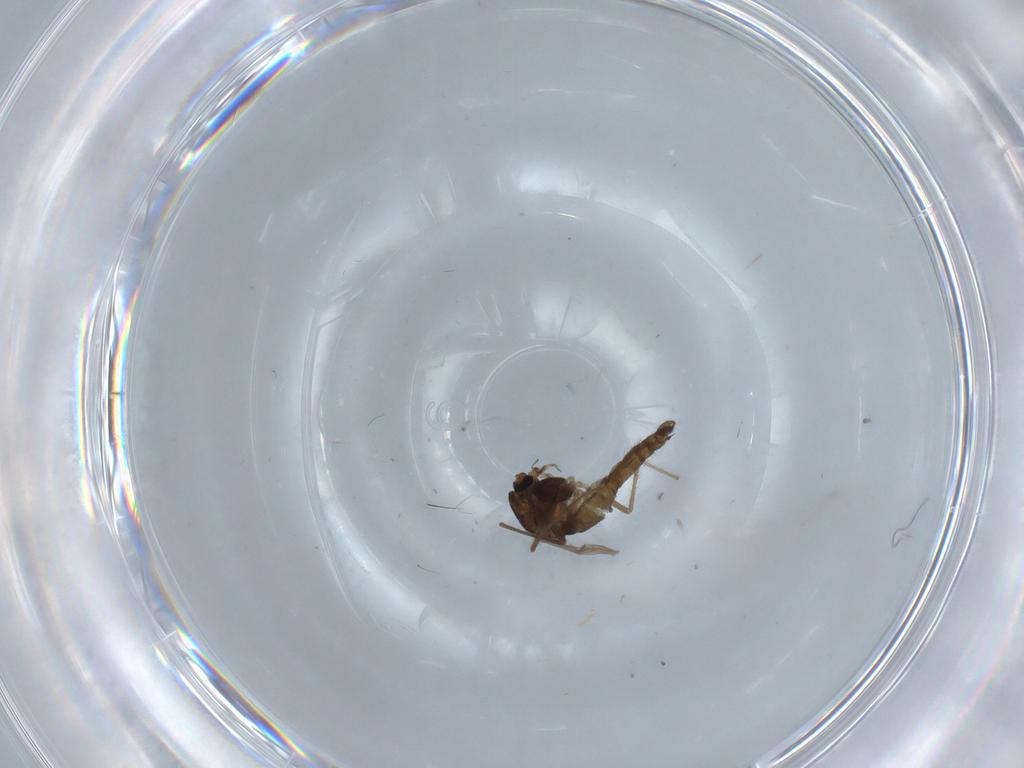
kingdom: Animalia
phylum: Arthropoda
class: Insecta
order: Diptera
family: Chironomidae
